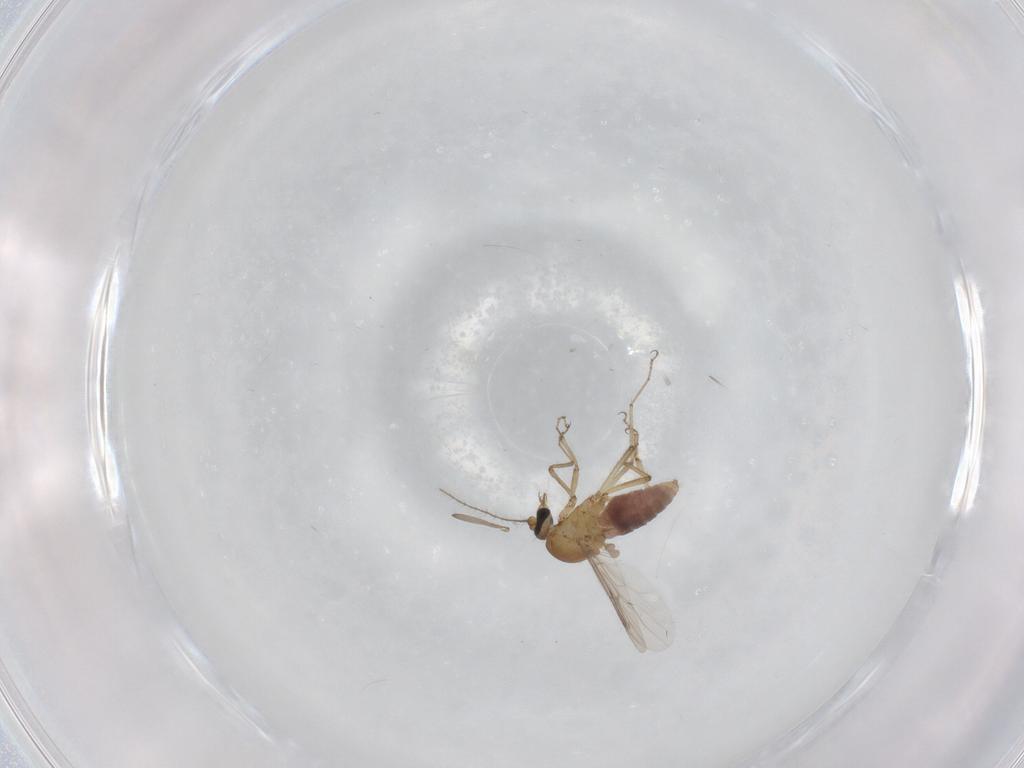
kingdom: Animalia
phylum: Arthropoda
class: Insecta
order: Diptera
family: Chironomidae
